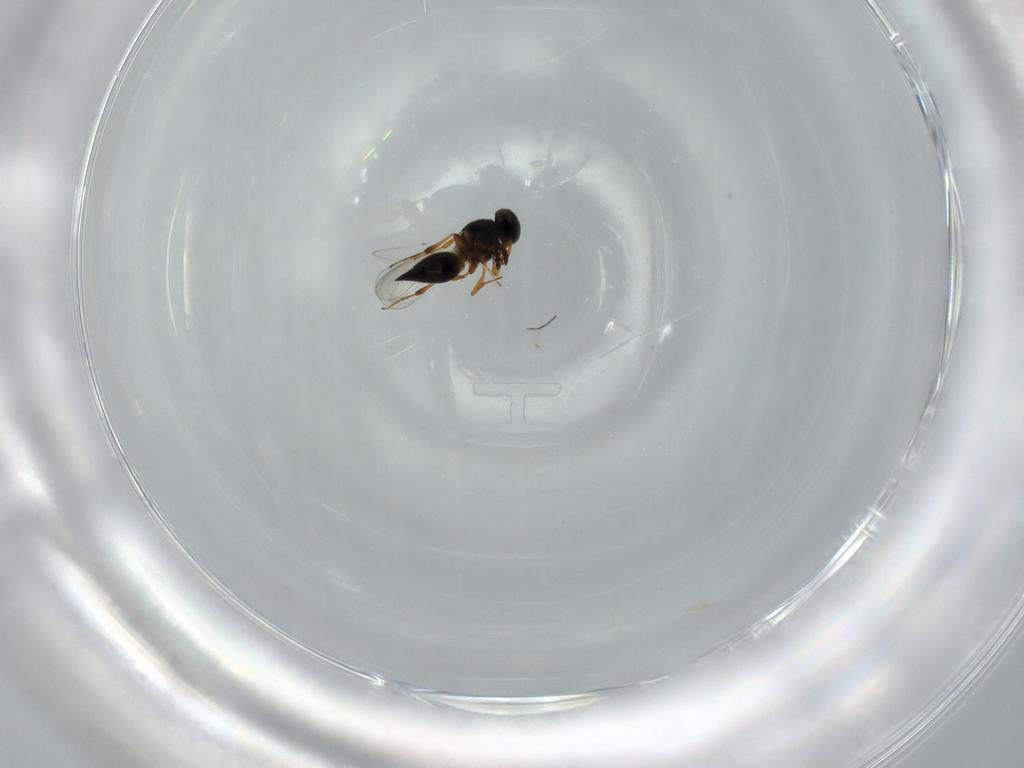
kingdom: Animalia
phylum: Arthropoda
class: Insecta
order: Hymenoptera
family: Platygastridae
